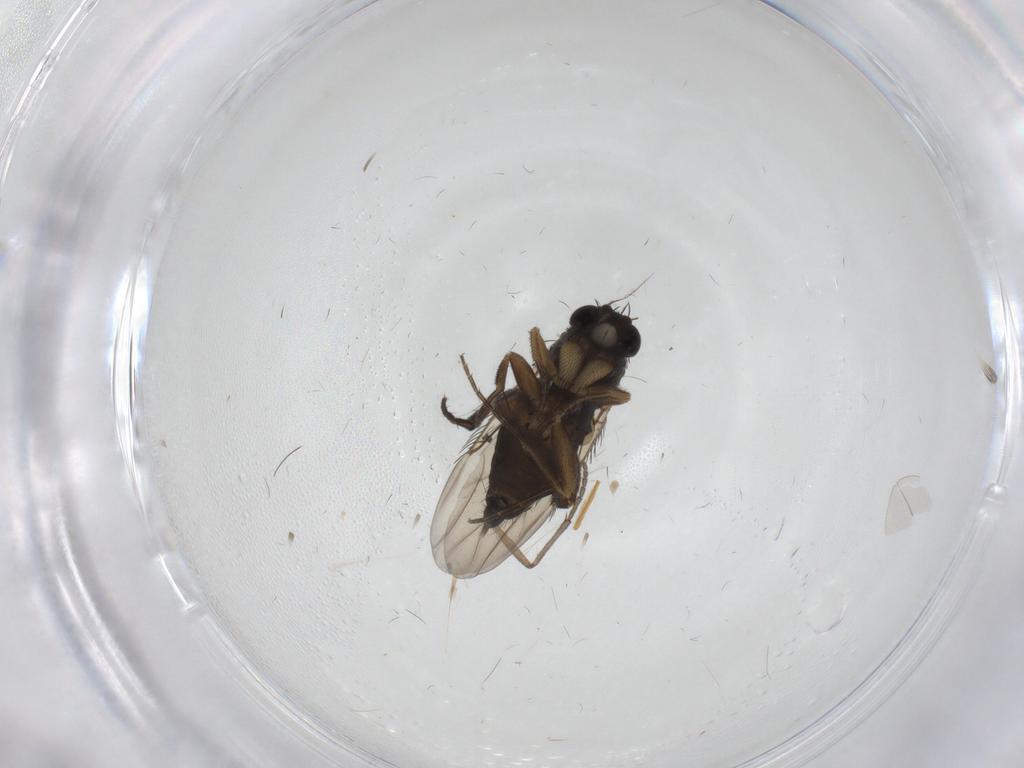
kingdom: Animalia
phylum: Arthropoda
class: Insecta
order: Diptera
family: Phoridae
